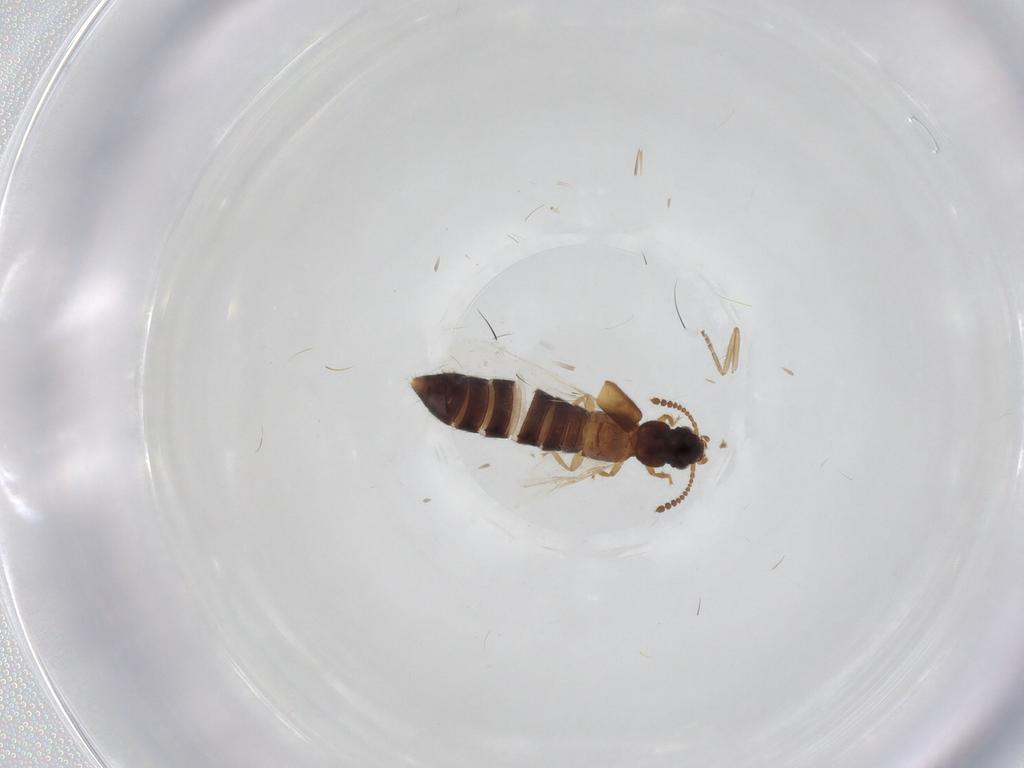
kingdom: Animalia
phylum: Arthropoda
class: Insecta
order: Coleoptera
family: Staphylinidae
